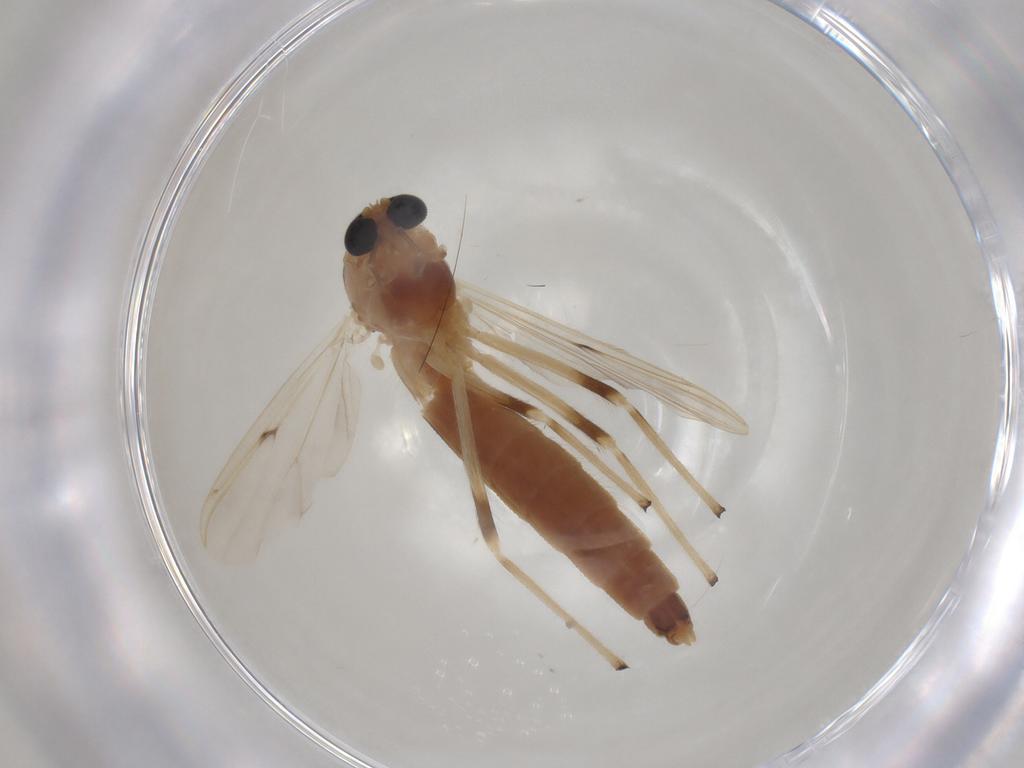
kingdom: Animalia
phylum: Arthropoda
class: Insecta
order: Diptera
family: Chironomidae
